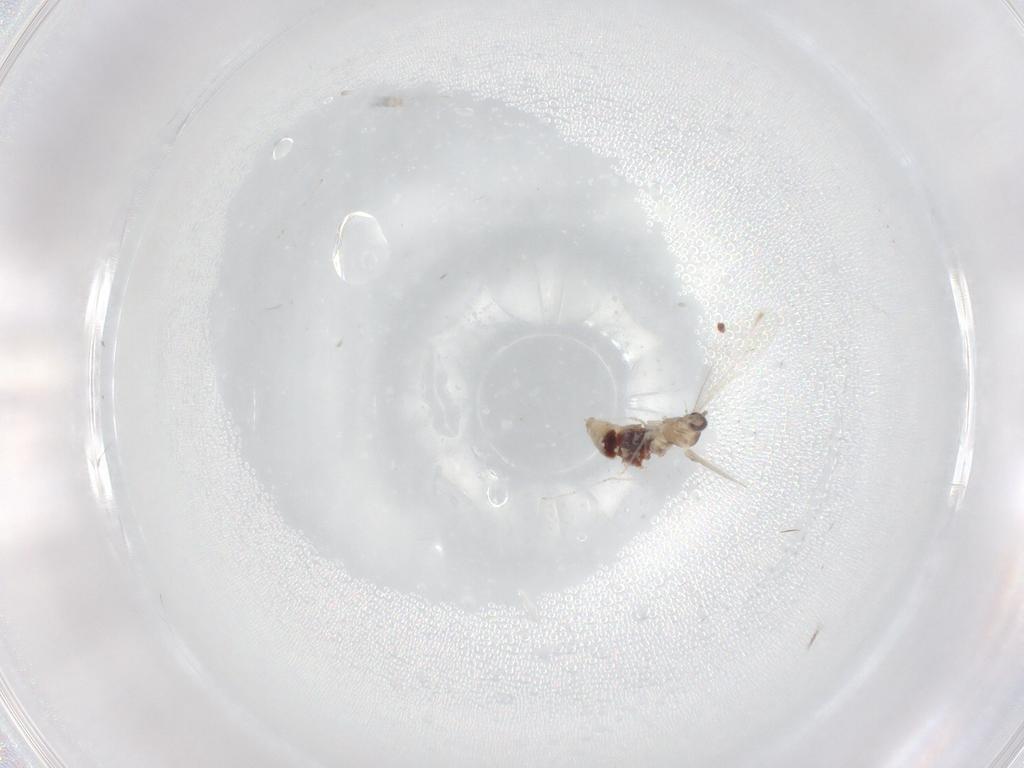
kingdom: Animalia
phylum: Arthropoda
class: Insecta
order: Diptera
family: Cecidomyiidae
